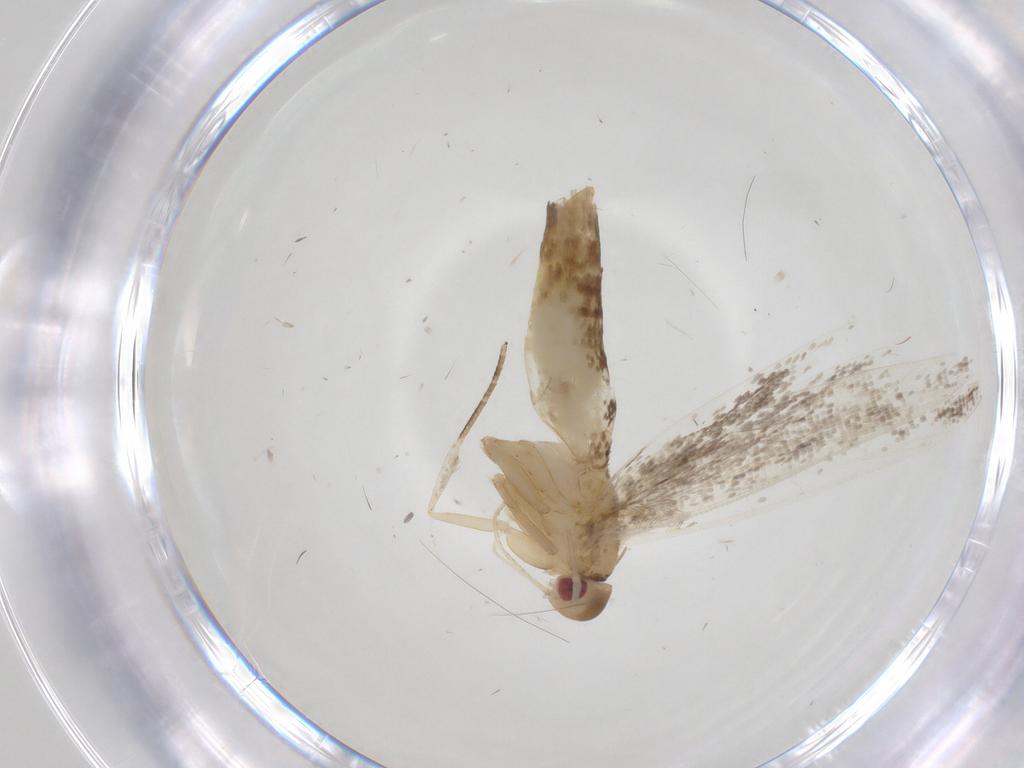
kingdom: Animalia
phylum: Arthropoda
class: Insecta
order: Lepidoptera
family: Cosmopterigidae
